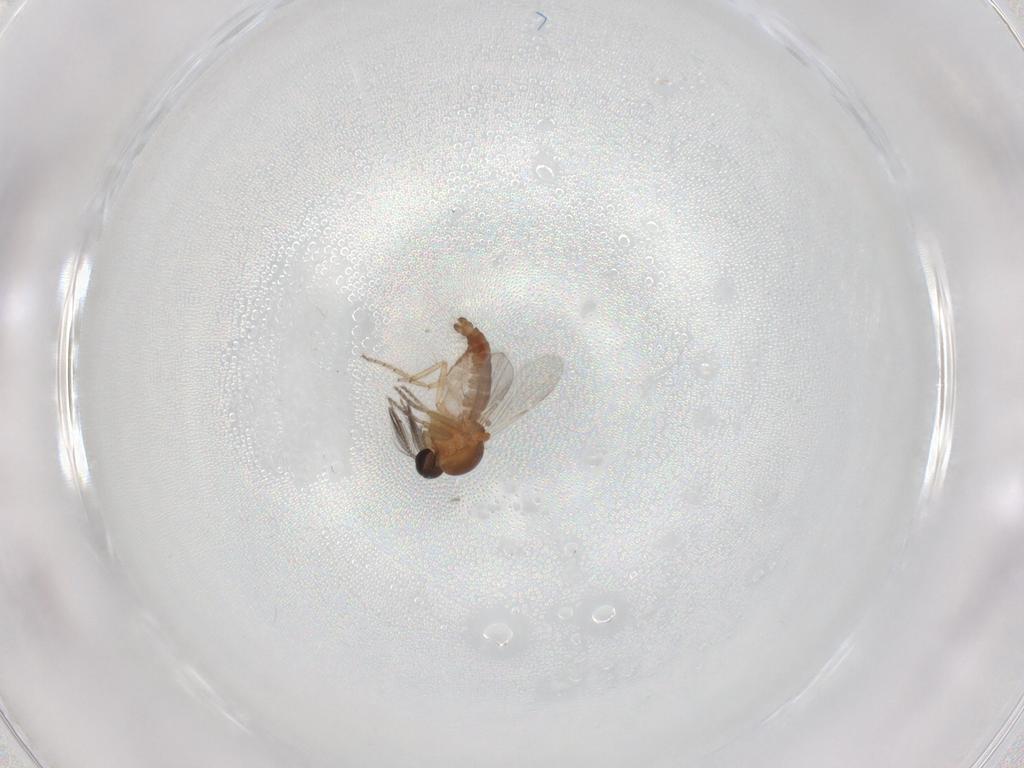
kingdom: Animalia
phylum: Arthropoda
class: Insecta
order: Diptera
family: Ceratopogonidae
